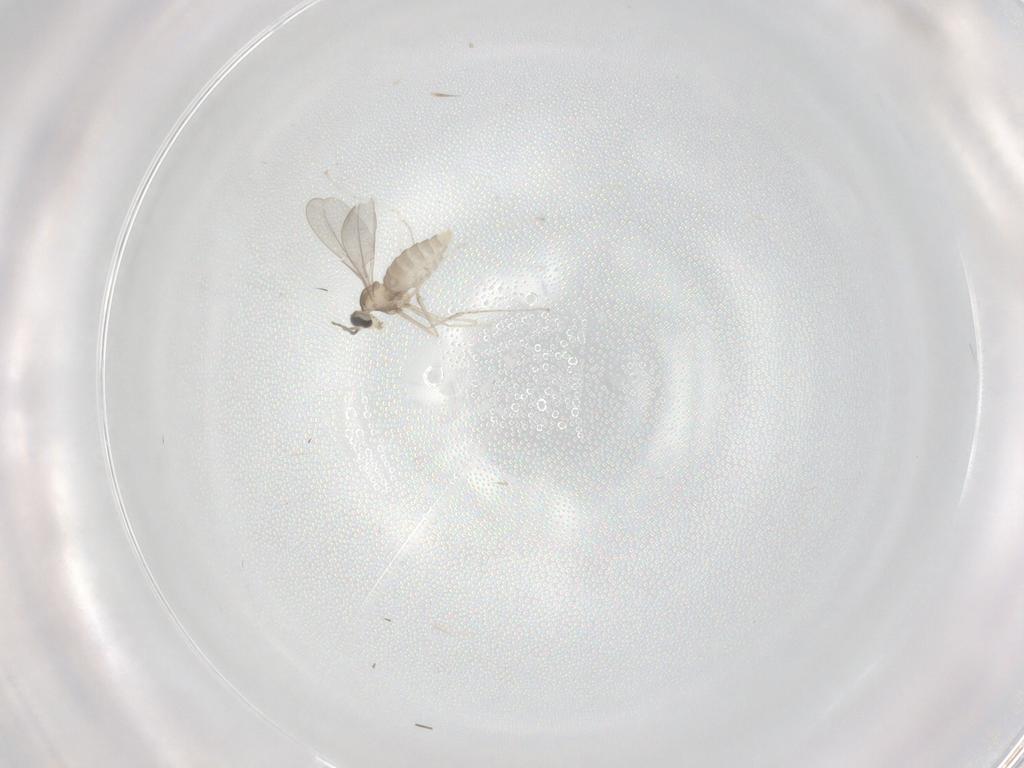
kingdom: Animalia
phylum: Arthropoda
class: Insecta
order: Diptera
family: Cecidomyiidae
